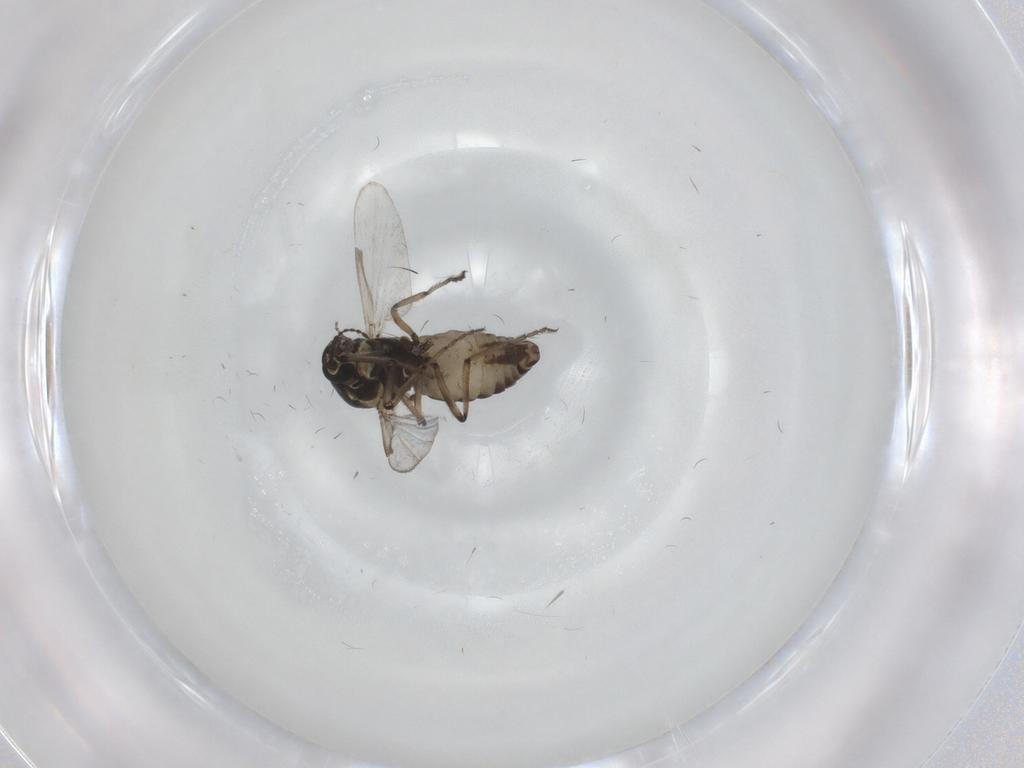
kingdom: Animalia
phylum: Arthropoda
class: Insecta
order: Diptera
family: Ceratopogonidae
